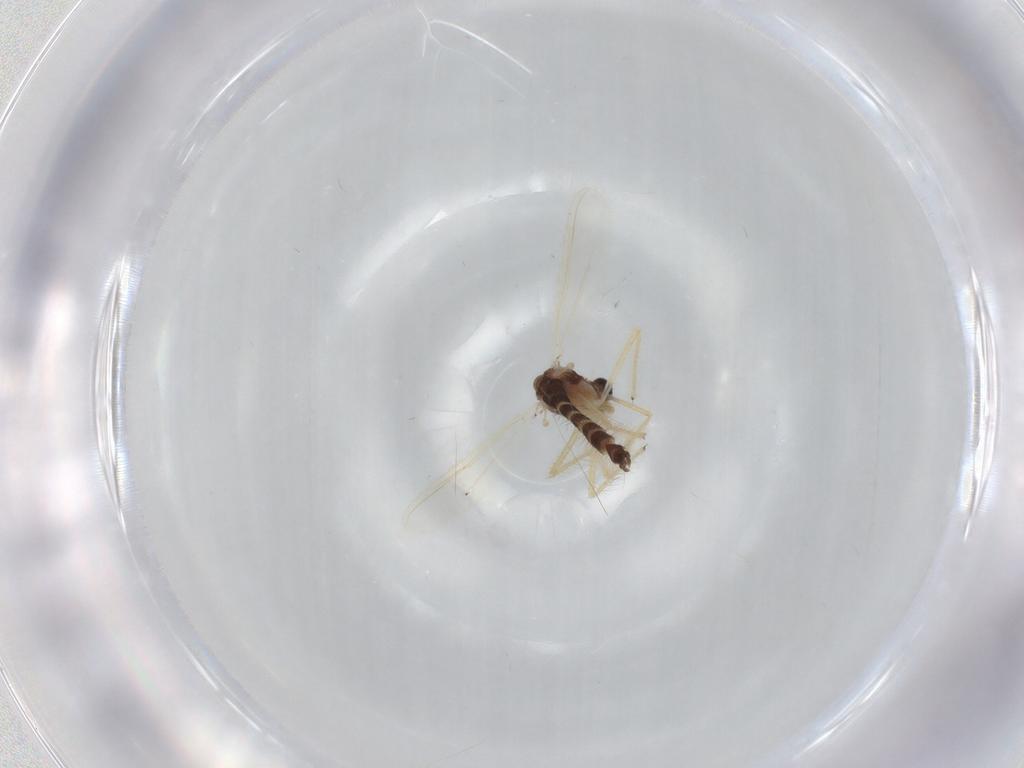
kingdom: Animalia
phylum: Arthropoda
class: Insecta
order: Diptera
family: Chironomidae
